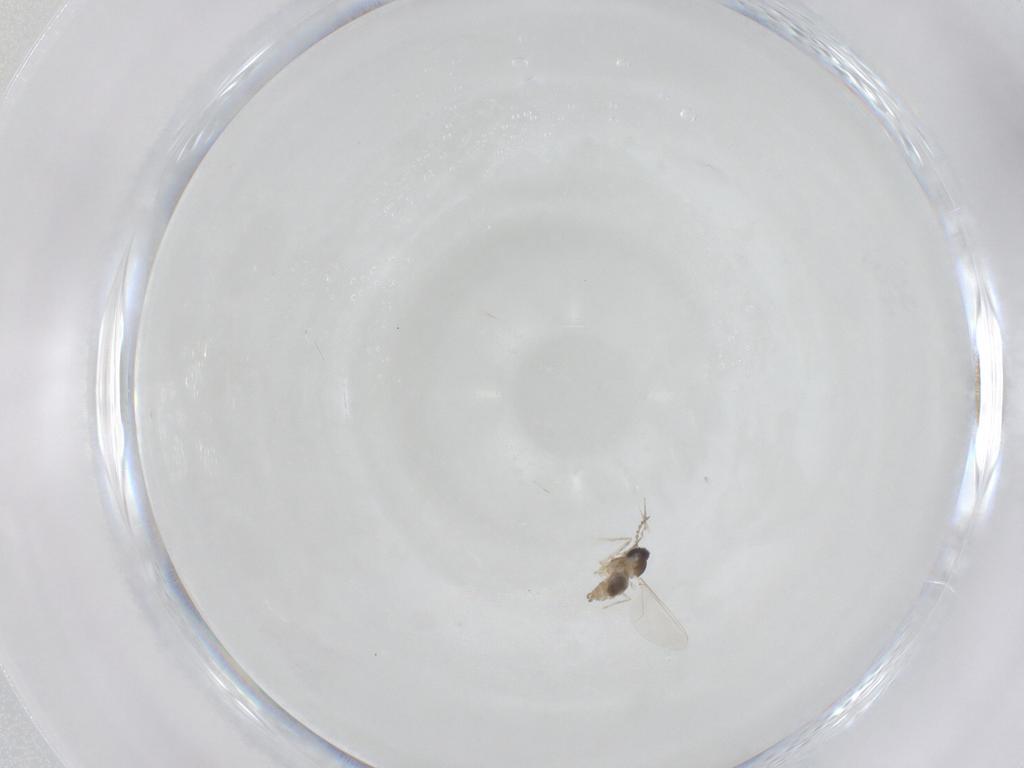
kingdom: Animalia
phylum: Arthropoda
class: Insecta
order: Diptera
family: Cecidomyiidae
